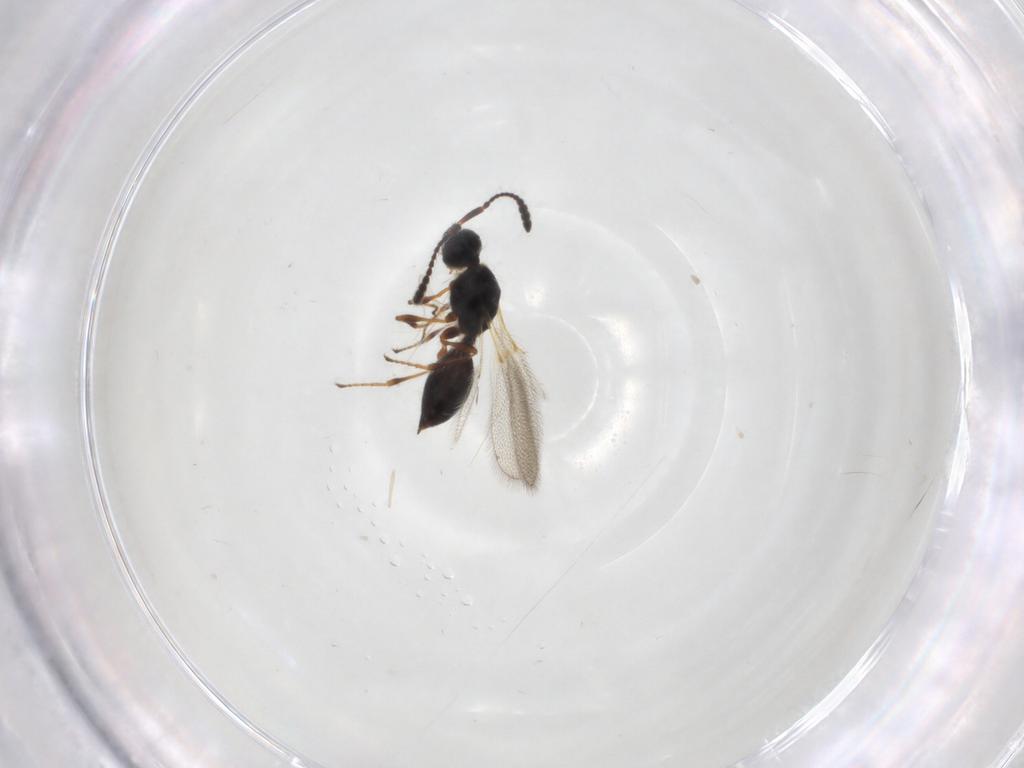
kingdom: Animalia
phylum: Arthropoda
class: Insecta
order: Hymenoptera
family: Diapriidae
